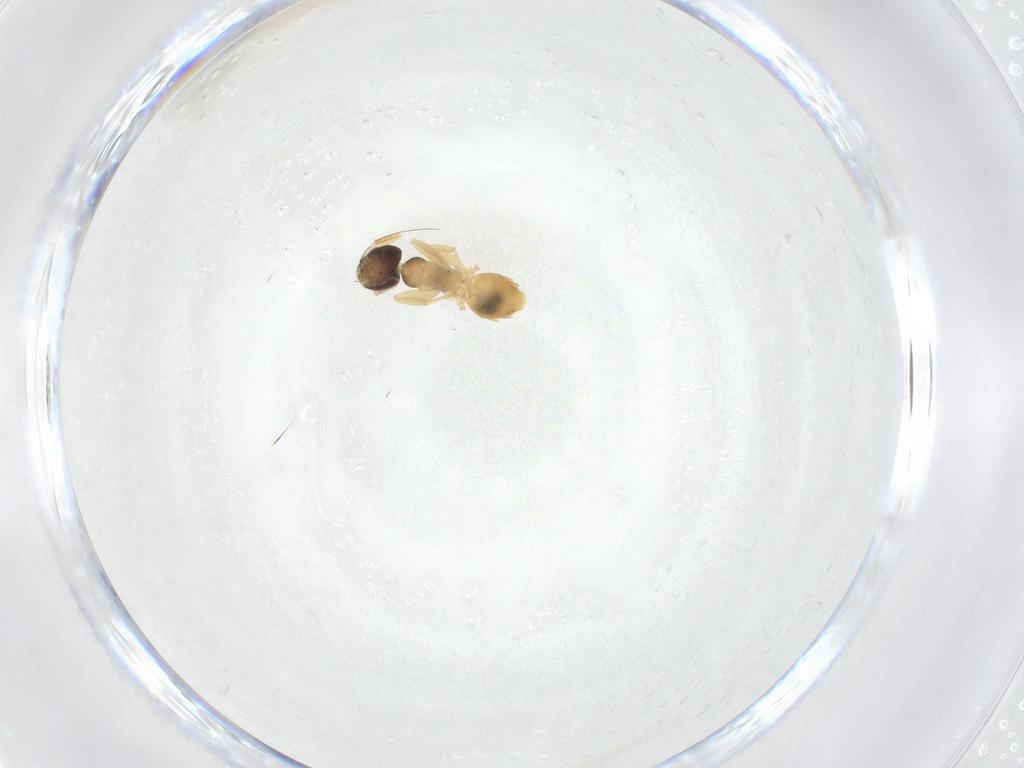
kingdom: Animalia
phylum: Arthropoda
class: Insecta
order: Hymenoptera
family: Formicidae
